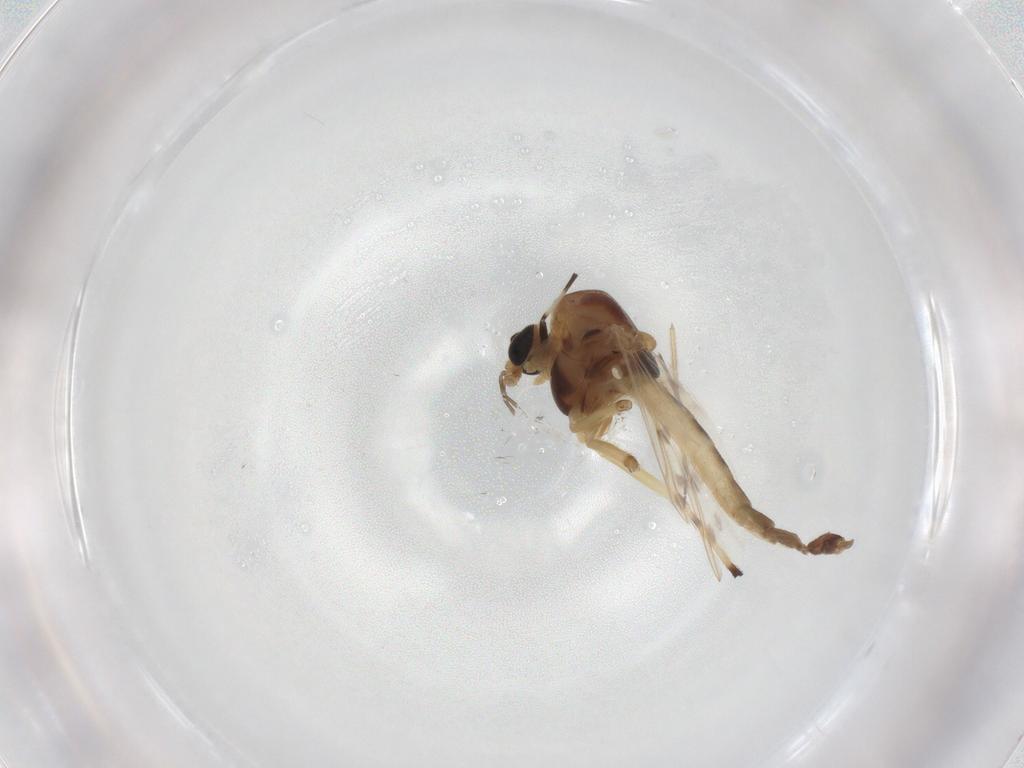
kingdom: Animalia
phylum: Arthropoda
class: Insecta
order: Diptera
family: Chironomidae
